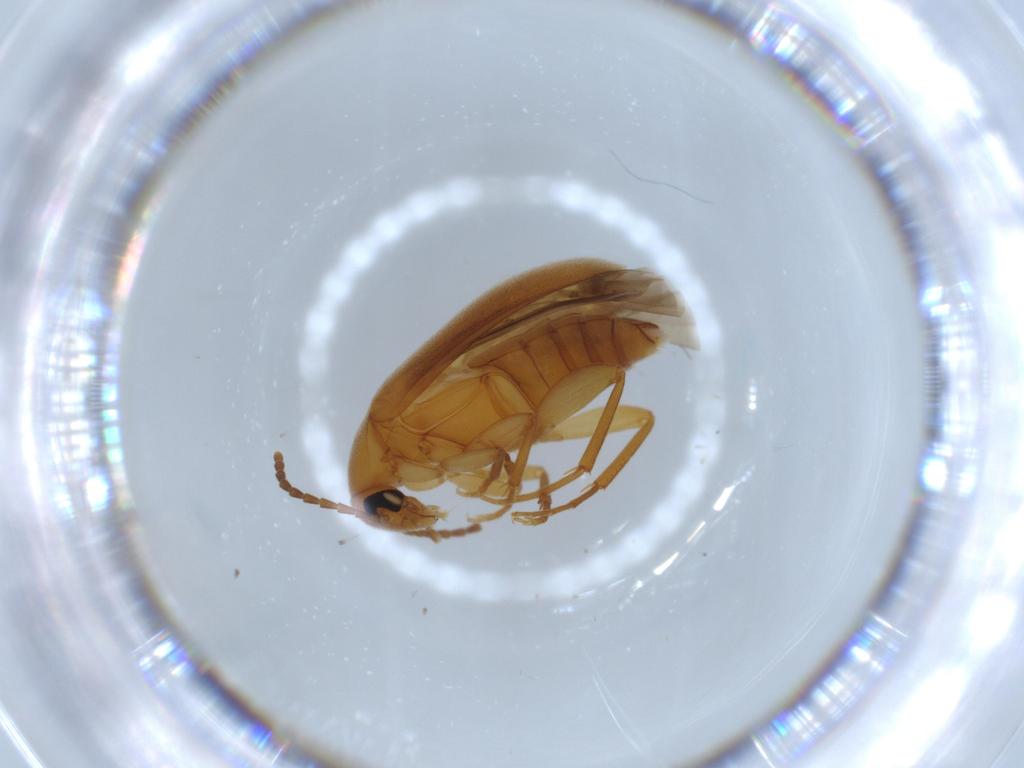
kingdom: Animalia
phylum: Arthropoda
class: Insecta
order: Coleoptera
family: Scraptiidae
